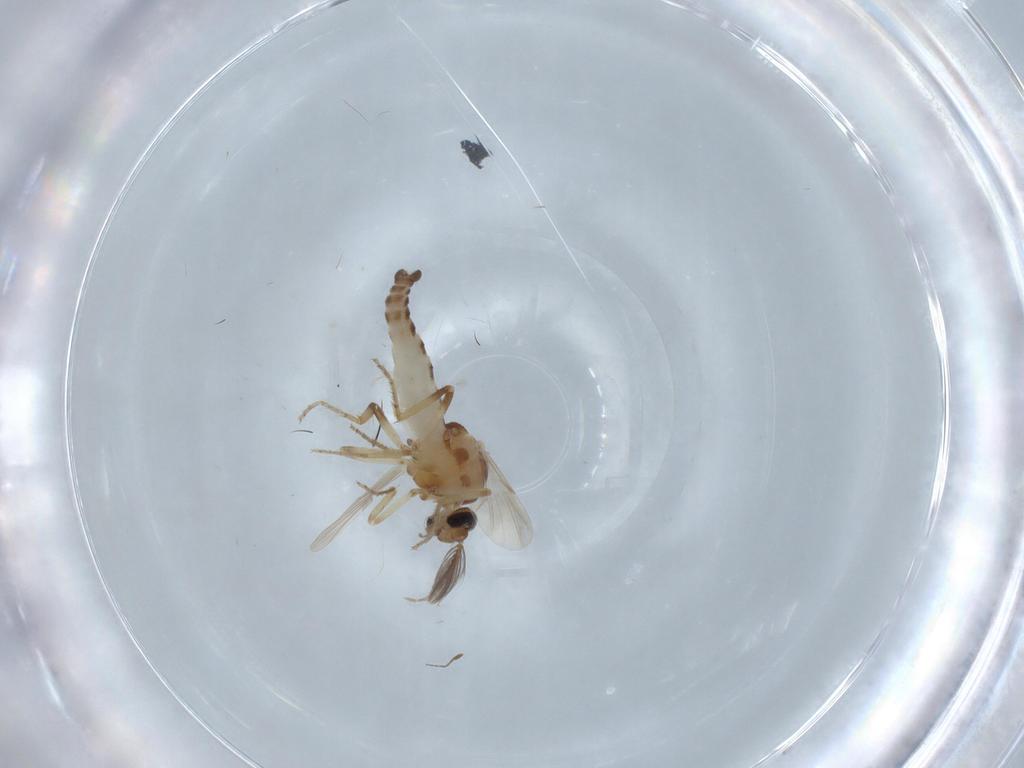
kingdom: Animalia
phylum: Arthropoda
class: Insecta
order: Diptera
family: Ceratopogonidae
